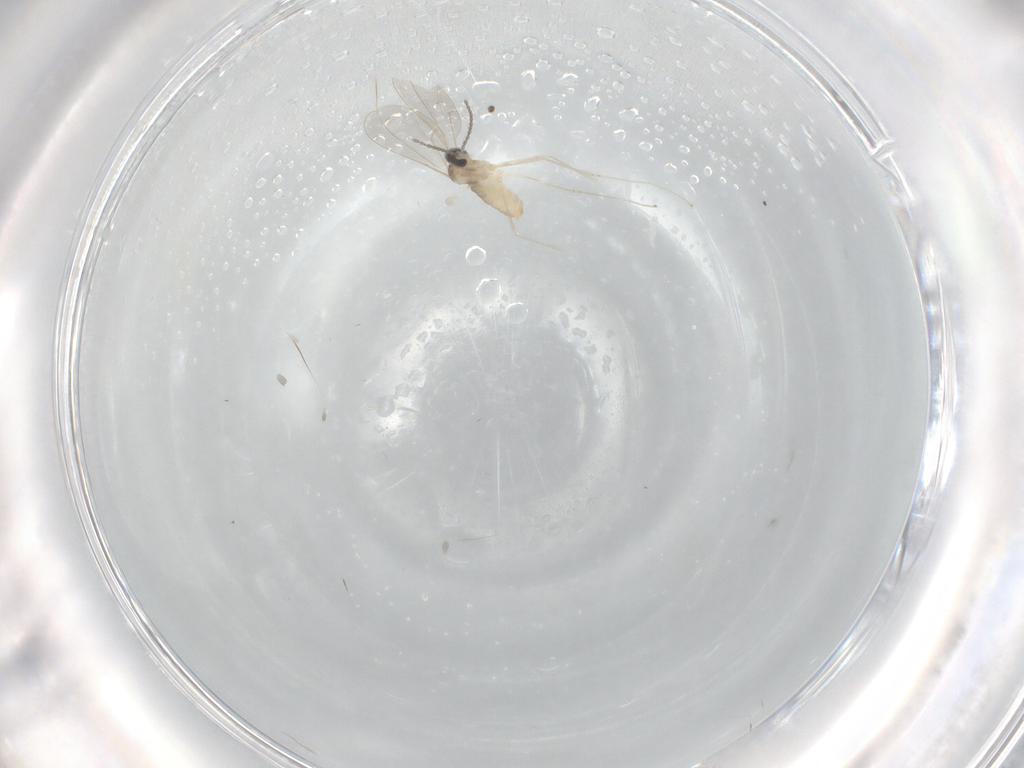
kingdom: Animalia
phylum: Arthropoda
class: Insecta
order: Diptera
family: Cecidomyiidae
